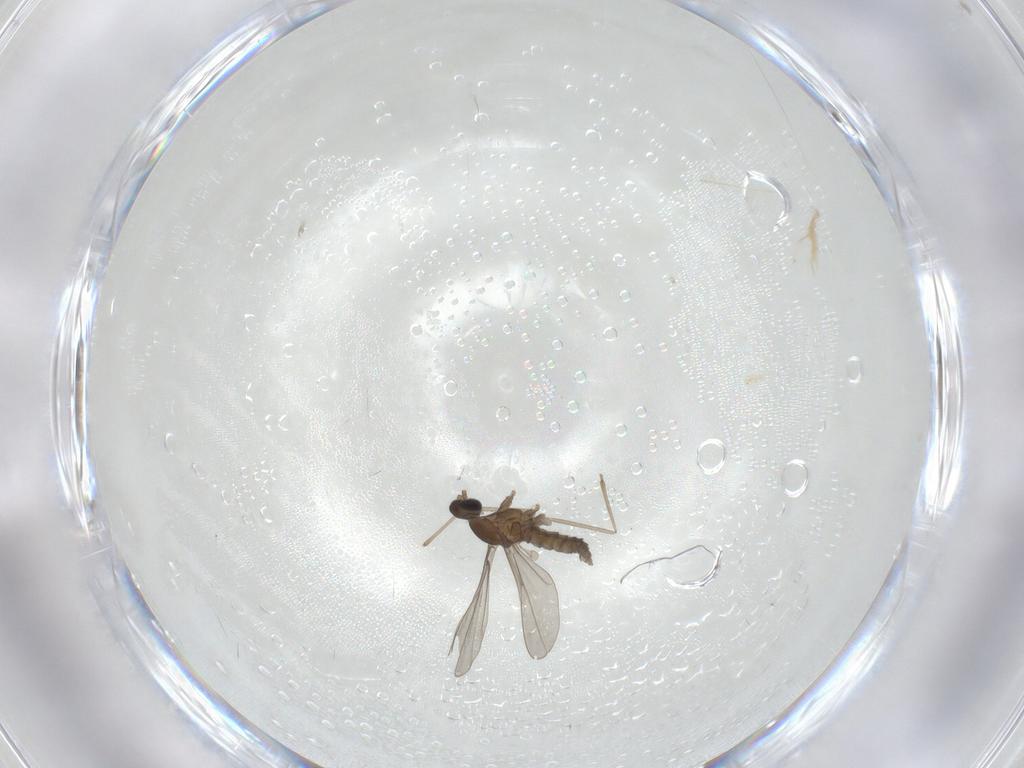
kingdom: Animalia
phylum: Arthropoda
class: Insecta
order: Diptera
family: Cecidomyiidae
